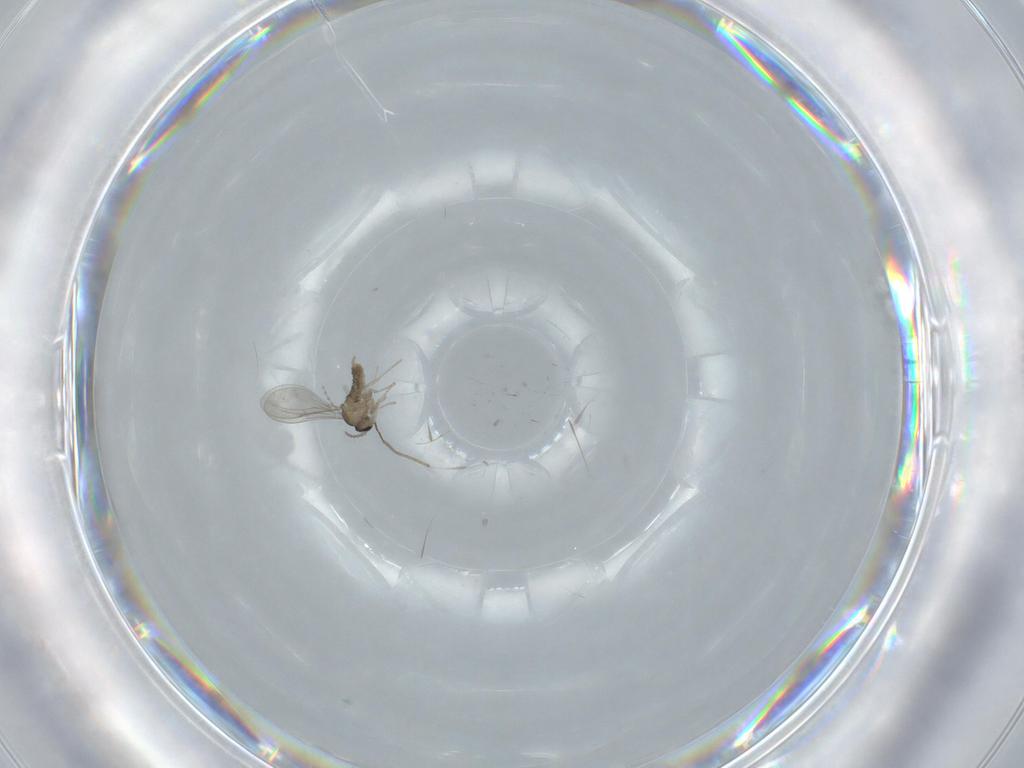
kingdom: Animalia
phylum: Arthropoda
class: Insecta
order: Diptera
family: Cecidomyiidae
